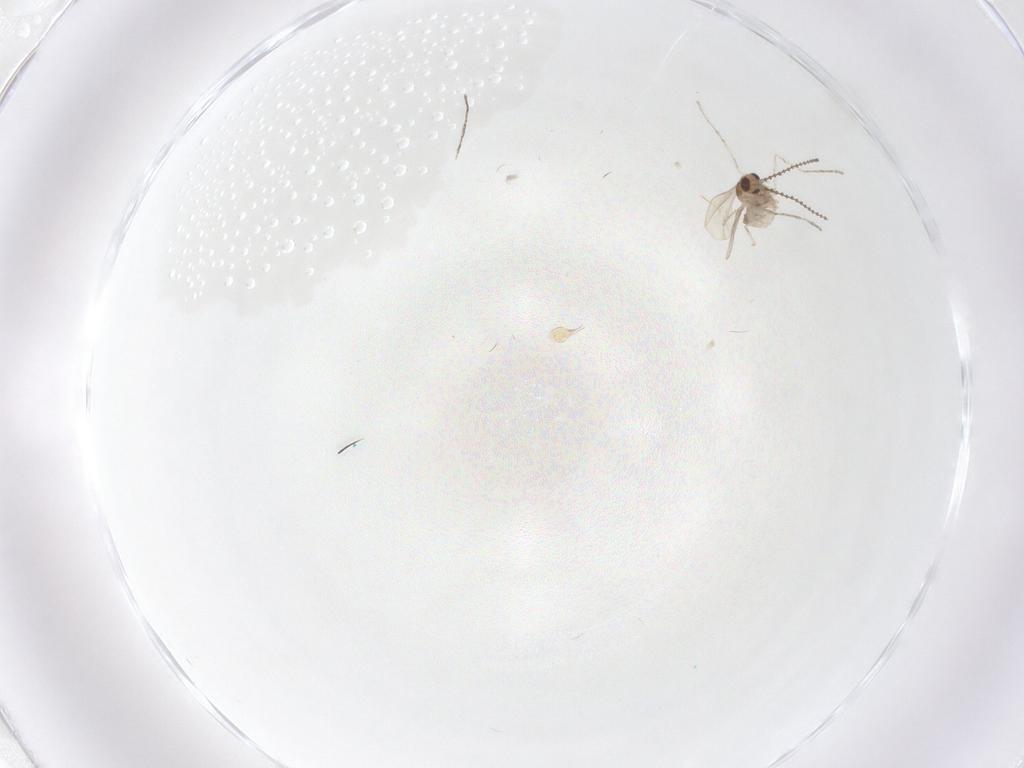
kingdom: Animalia
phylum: Arthropoda
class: Insecta
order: Diptera
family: Cecidomyiidae
